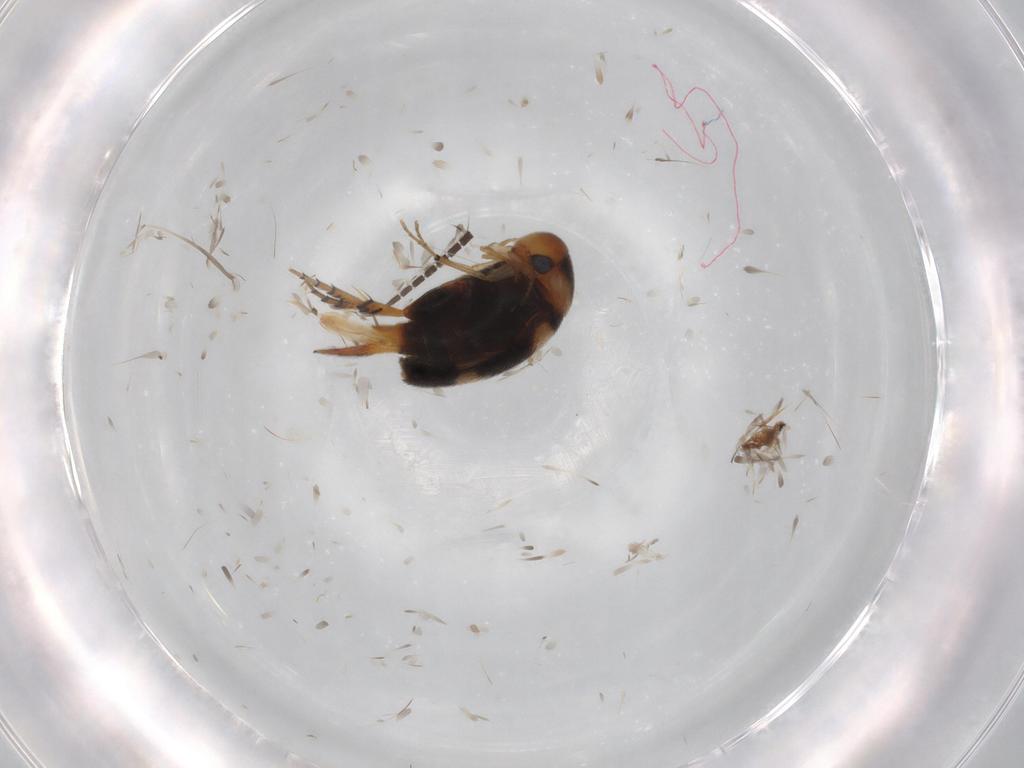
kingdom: Animalia
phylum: Arthropoda
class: Insecta
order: Coleoptera
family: Mordellidae
